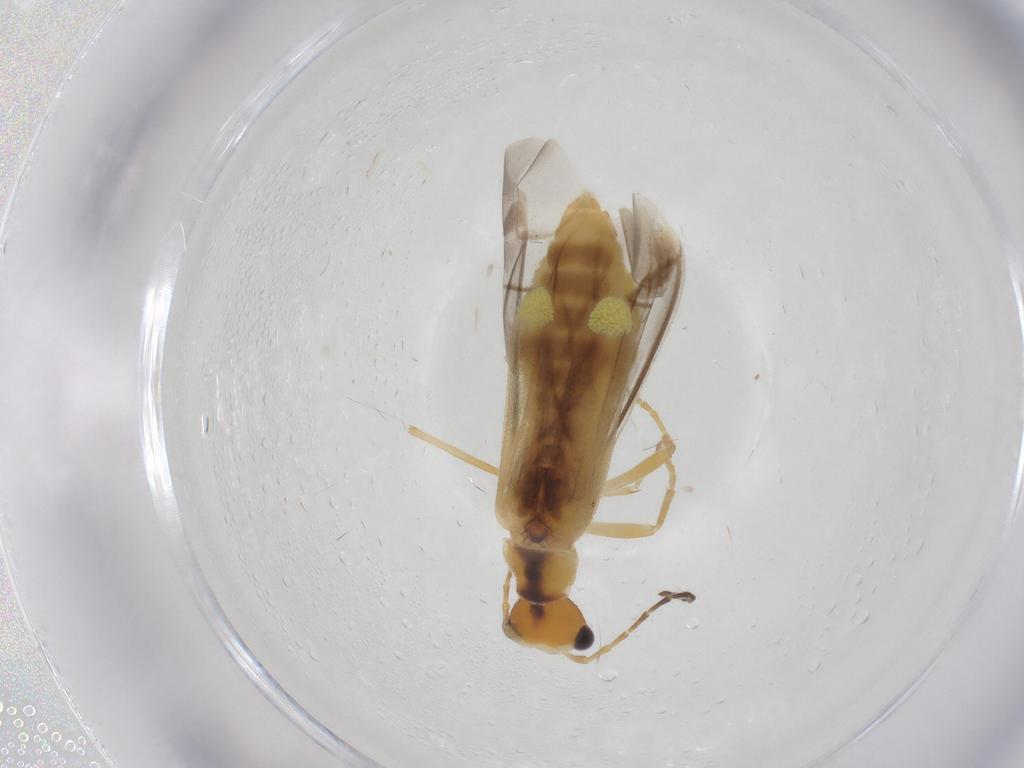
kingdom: Animalia
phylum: Arthropoda
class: Insecta
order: Coleoptera
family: Cantharidae
